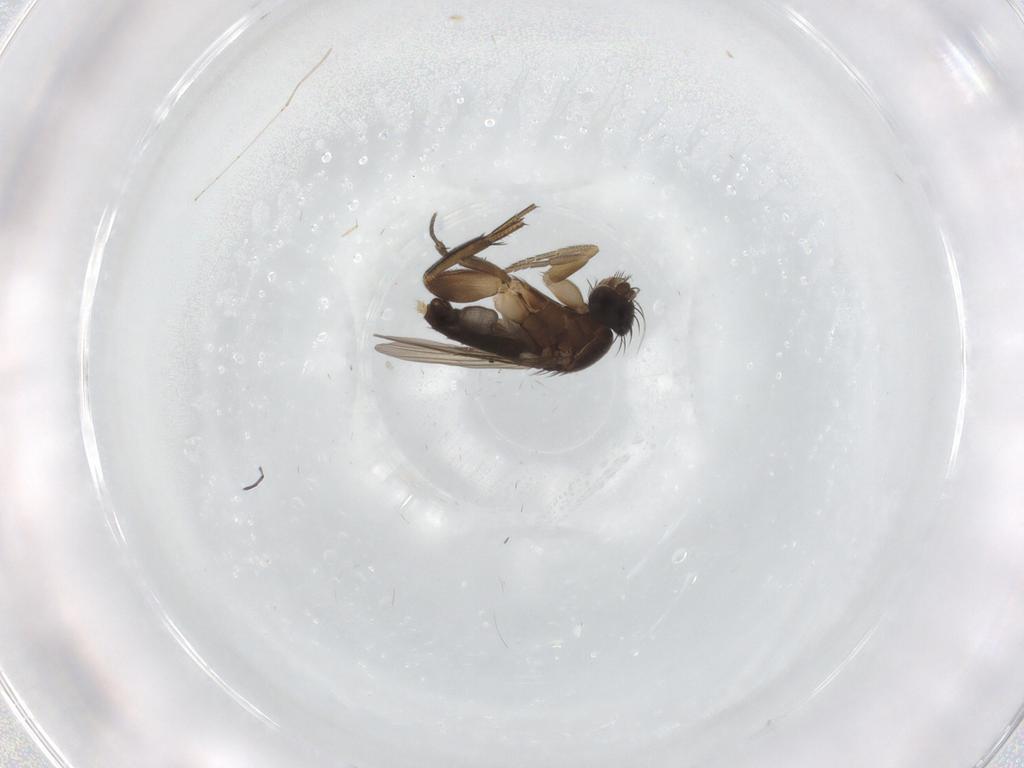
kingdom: Animalia
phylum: Arthropoda
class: Insecta
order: Diptera
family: Phoridae
